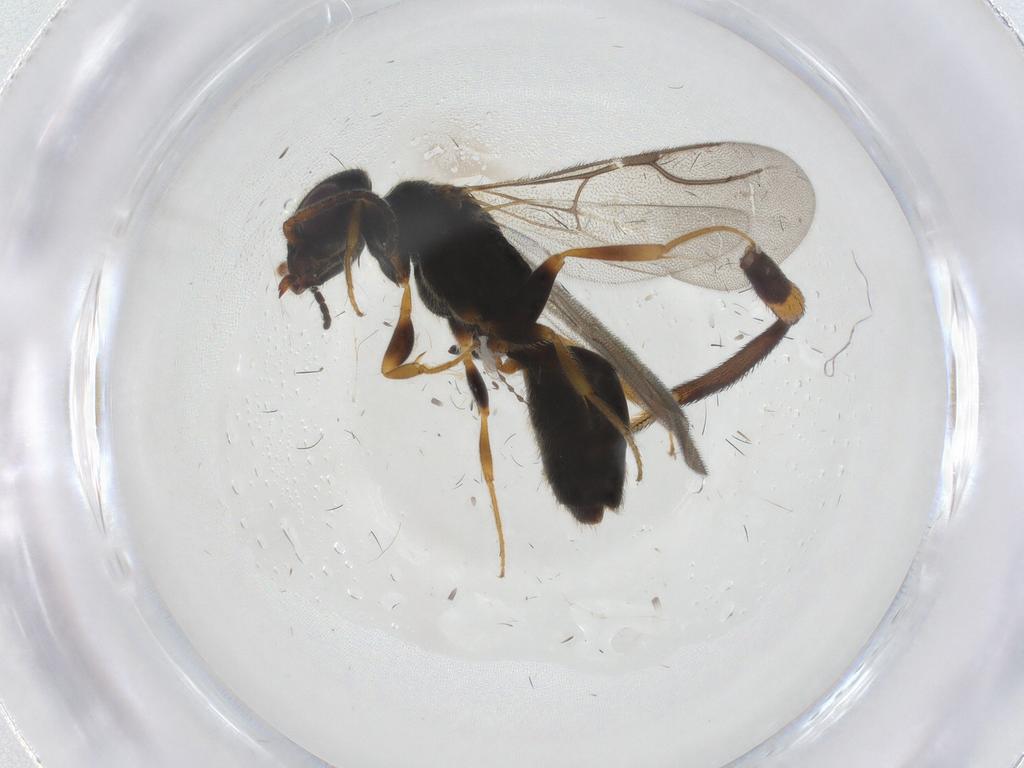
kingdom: Animalia
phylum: Arthropoda
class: Insecta
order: Hymenoptera
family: Bethylidae
